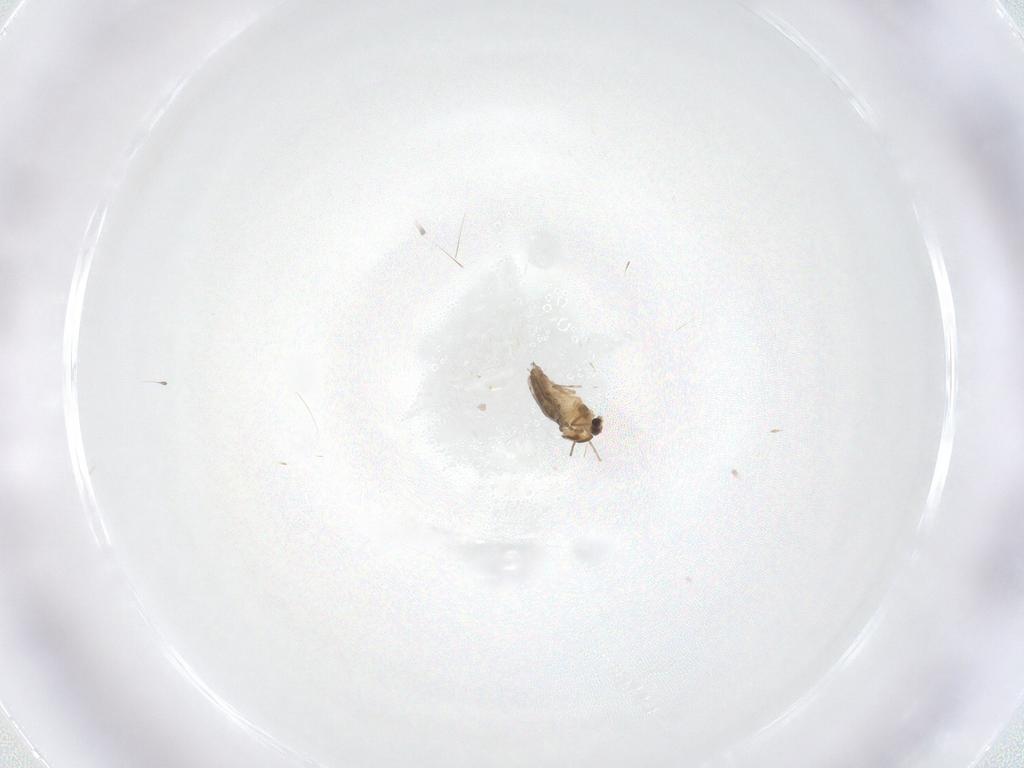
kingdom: Animalia
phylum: Arthropoda
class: Insecta
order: Diptera
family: Chironomidae
